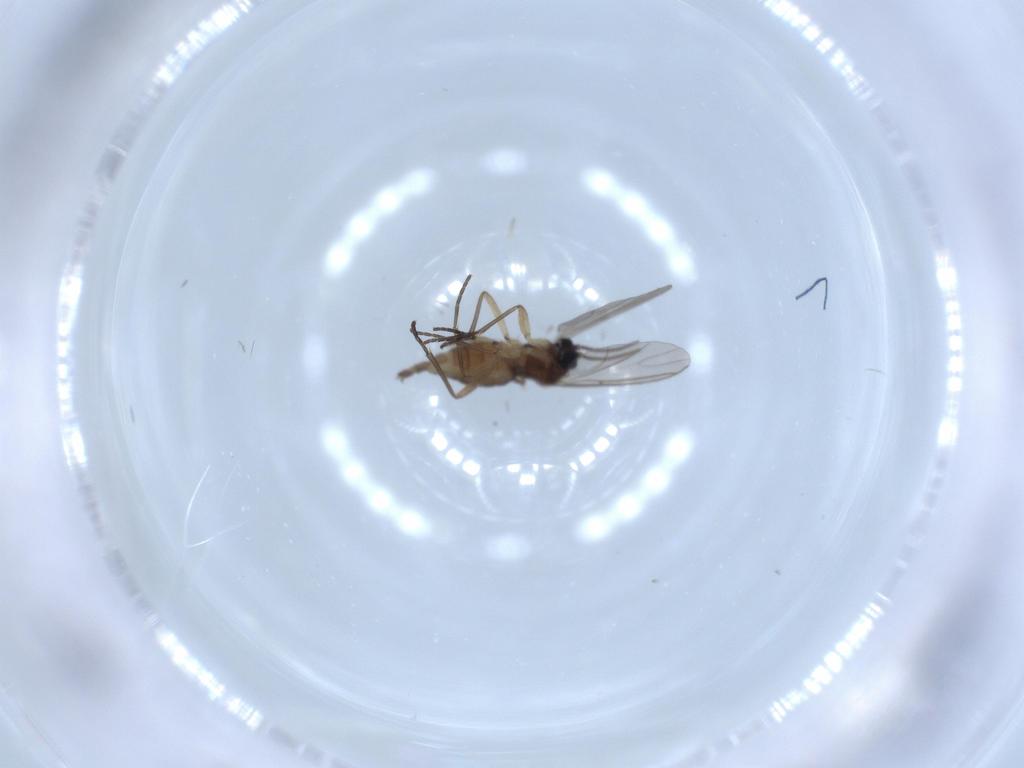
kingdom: Animalia
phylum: Arthropoda
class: Insecta
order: Diptera
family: Sciaridae
